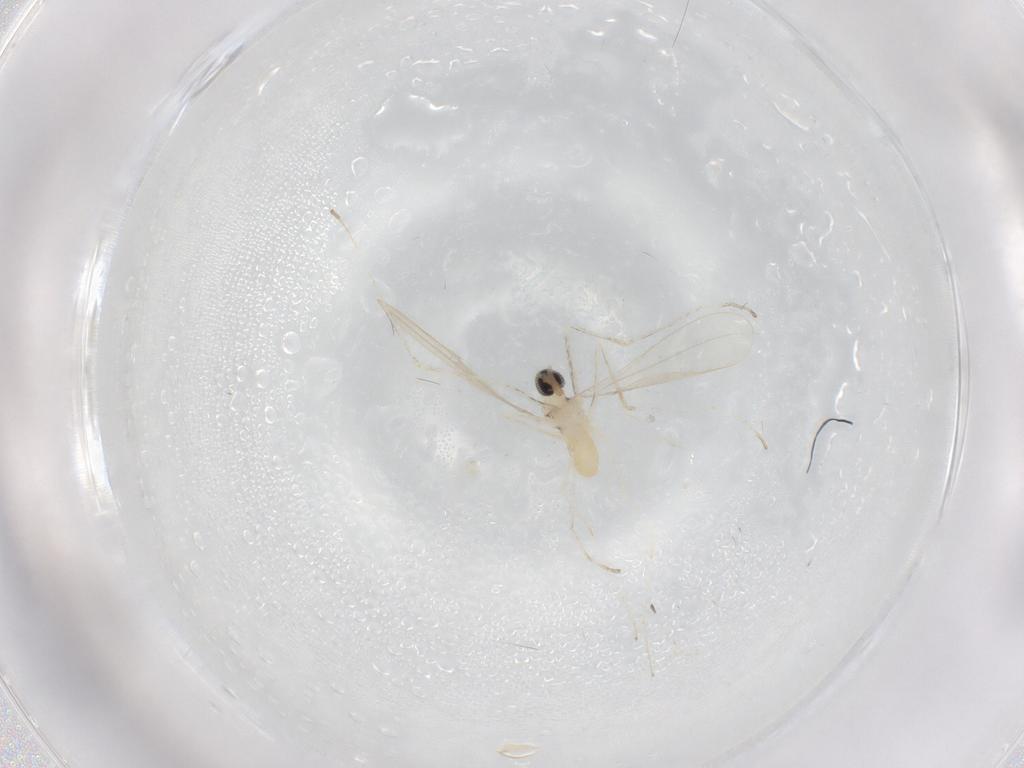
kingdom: Animalia
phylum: Arthropoda
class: Insecta
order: Diptera
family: Cecidomyiidae
